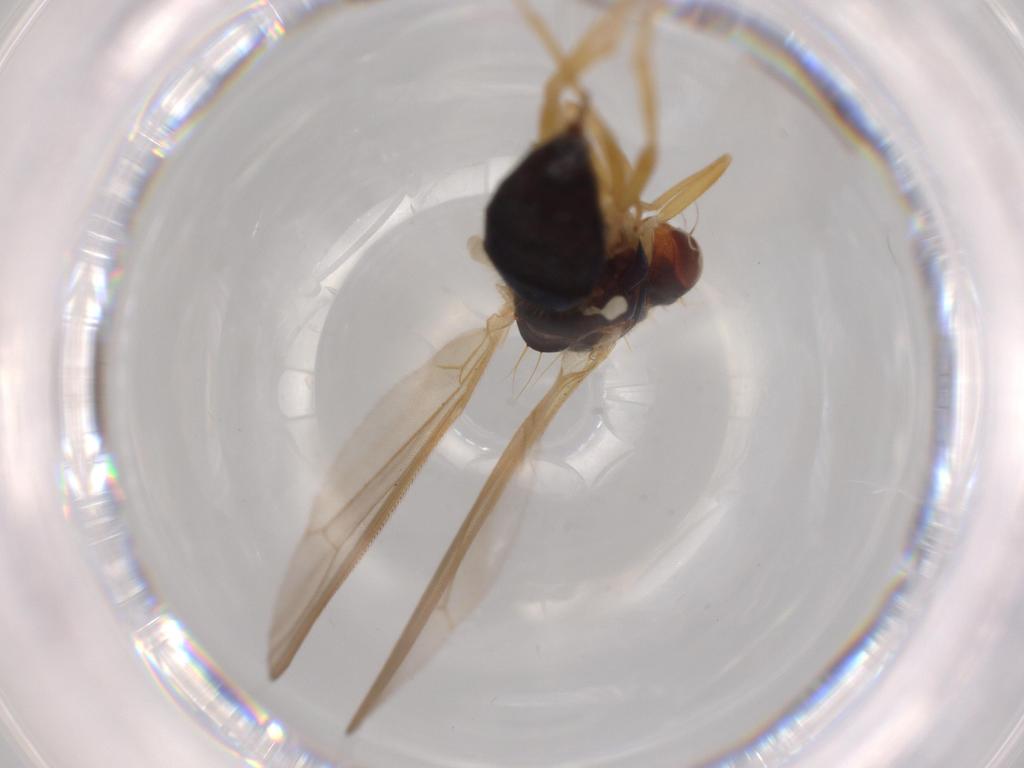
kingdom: Animalia
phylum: Arthropoda
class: Insecta
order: Diptera
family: Psilidae
